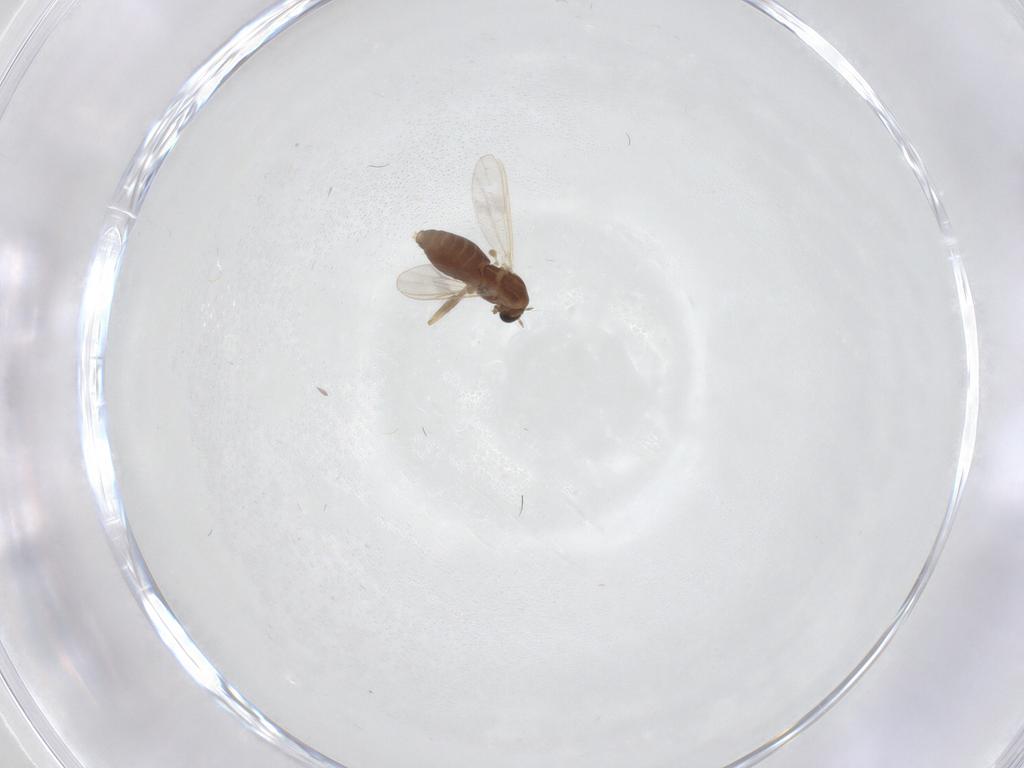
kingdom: Animalia
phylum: Arthropoda
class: Insecta
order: Diptera
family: Chironomidae
